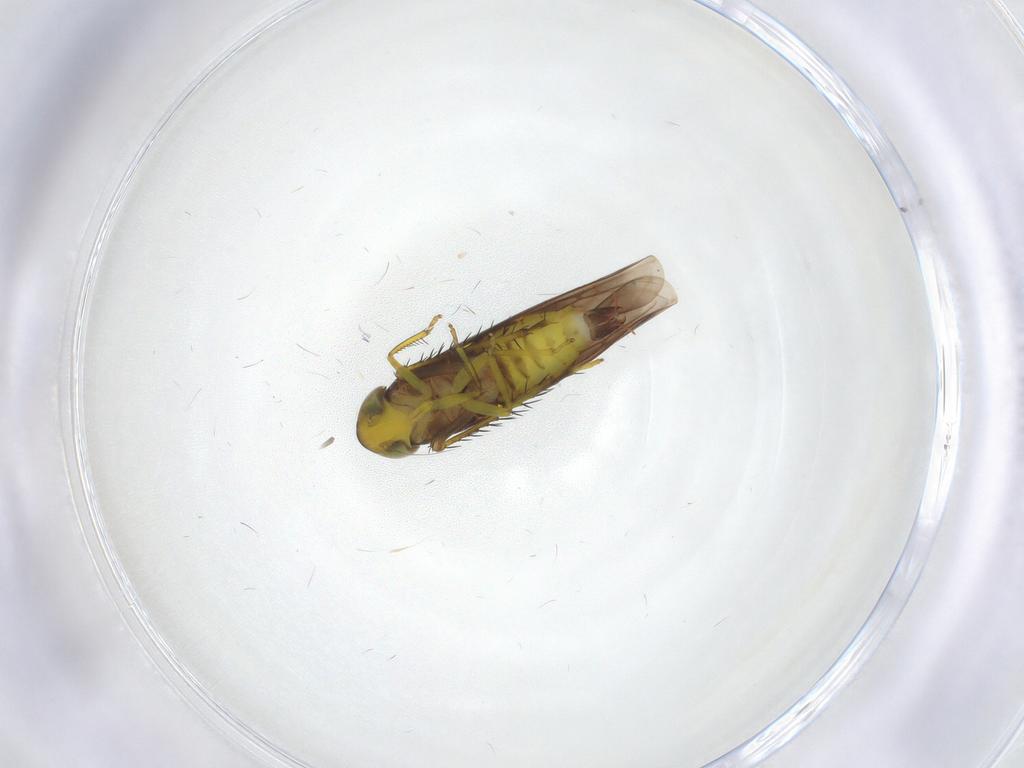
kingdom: Animalia
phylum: Arthropoda
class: Insecta
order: Hemiptera
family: Cicadellidae
